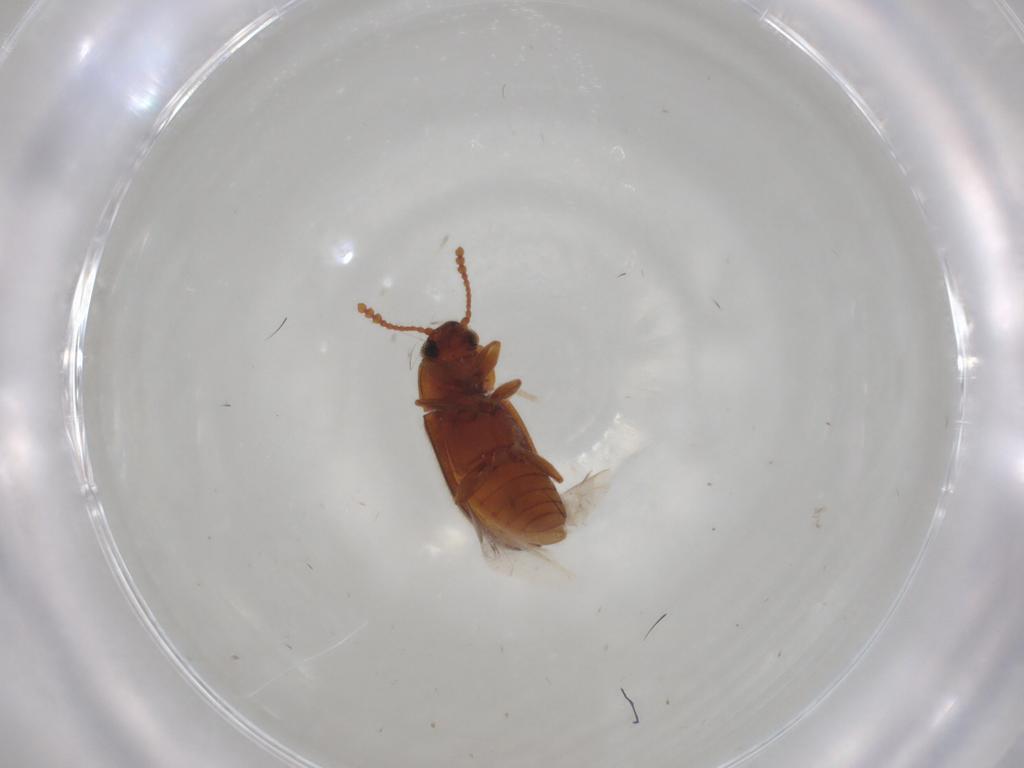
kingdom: Animalia
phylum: Arthropoda
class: Insecta
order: Coleoptera
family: Erotylidae
